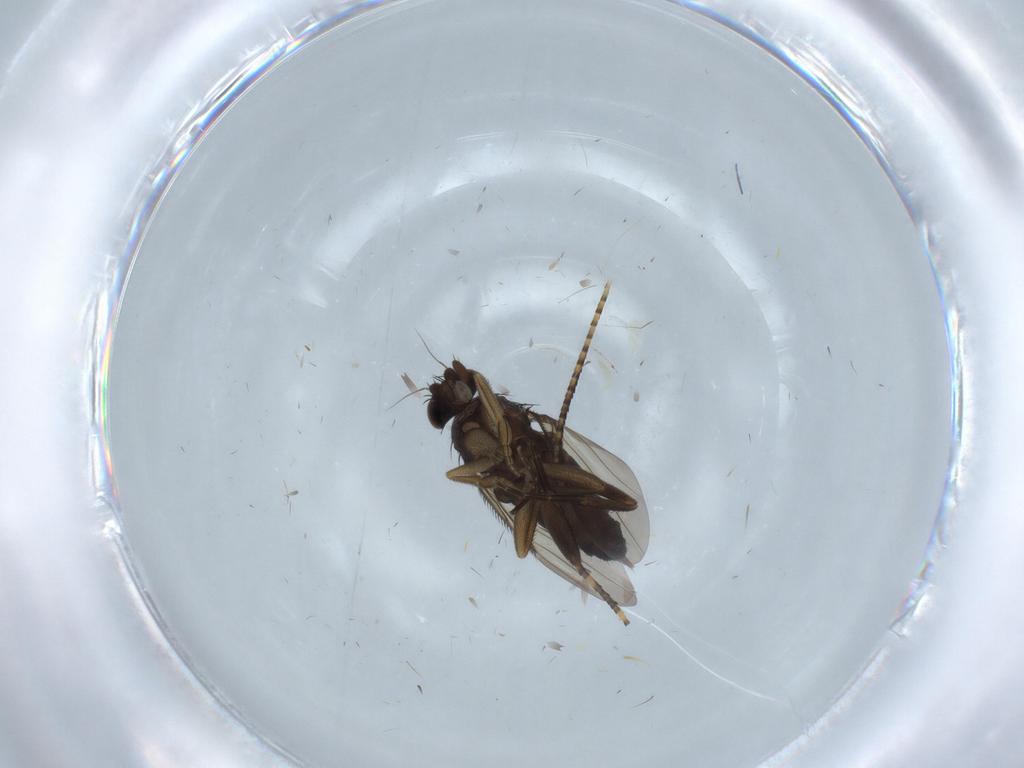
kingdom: Animalia
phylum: Arthropoda
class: Insecta
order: Diptera
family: Phoridae
